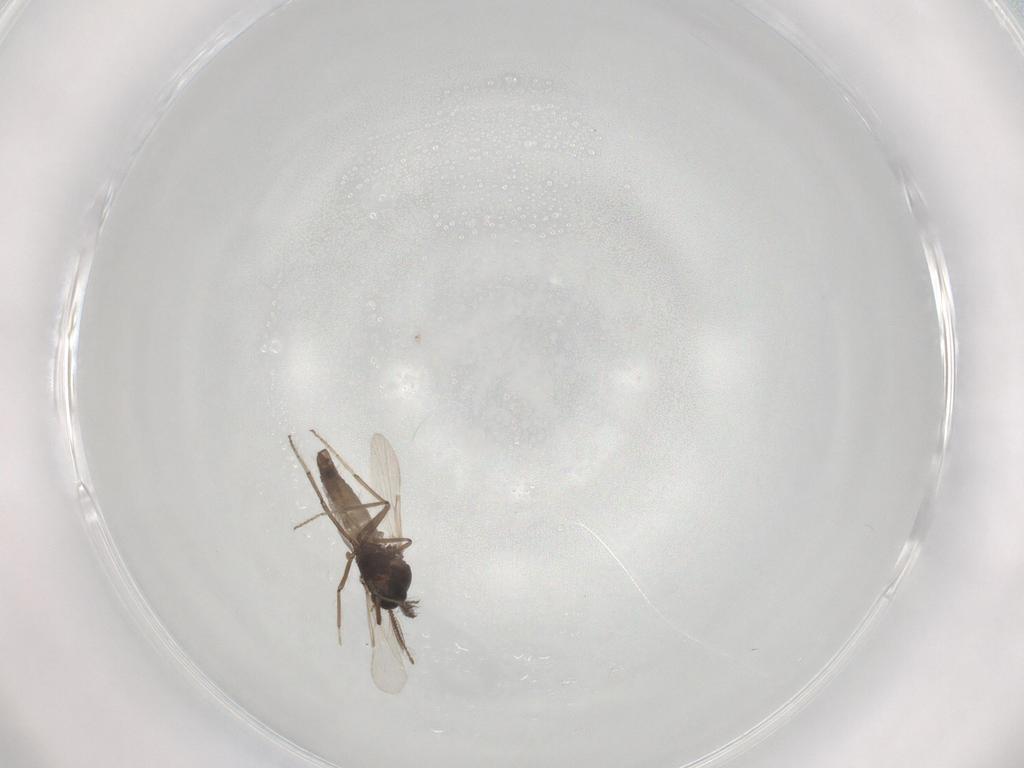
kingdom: Animalia
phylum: Arthropoda
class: Insecta
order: Diptera
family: Chironomidae
